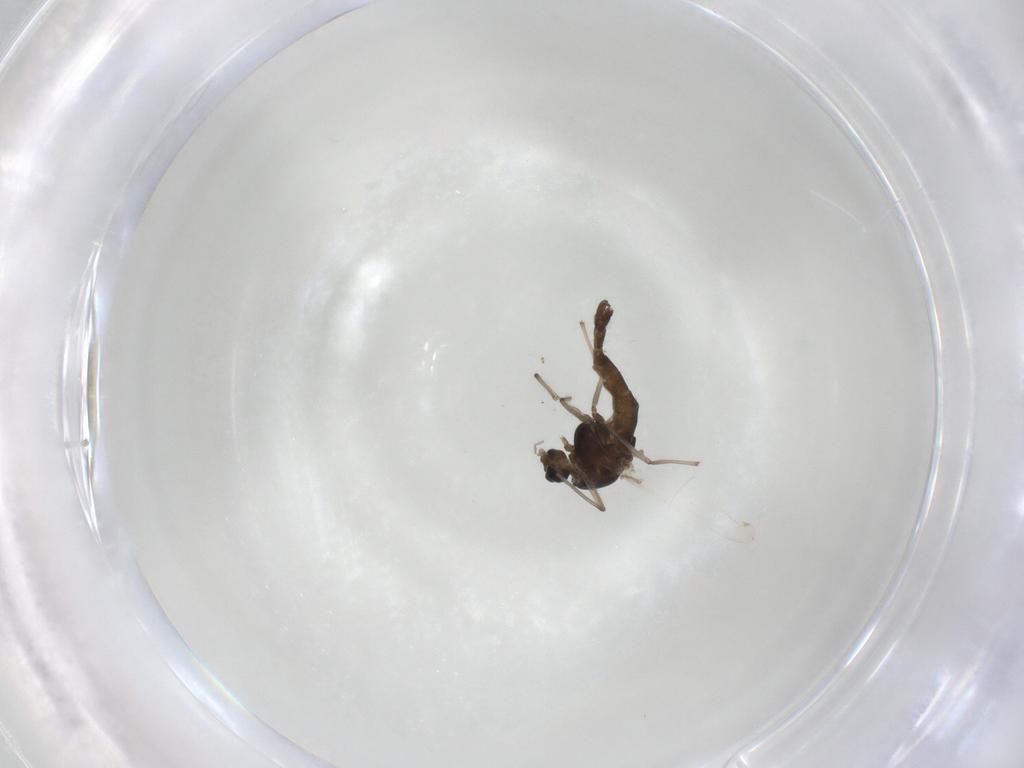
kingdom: Animalia
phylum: Arthropoda
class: Insecta
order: Diptera
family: Chironomidae
